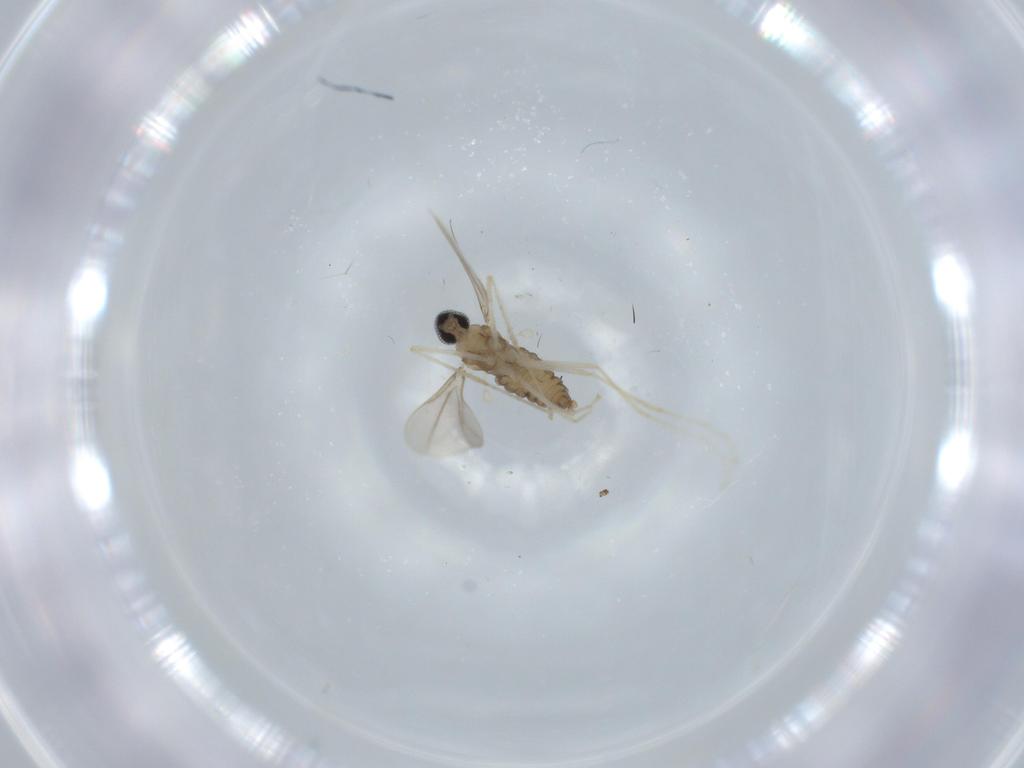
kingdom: Animalia
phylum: Arthropoda
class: Insecta
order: Diptera
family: Cecidomyiidae
